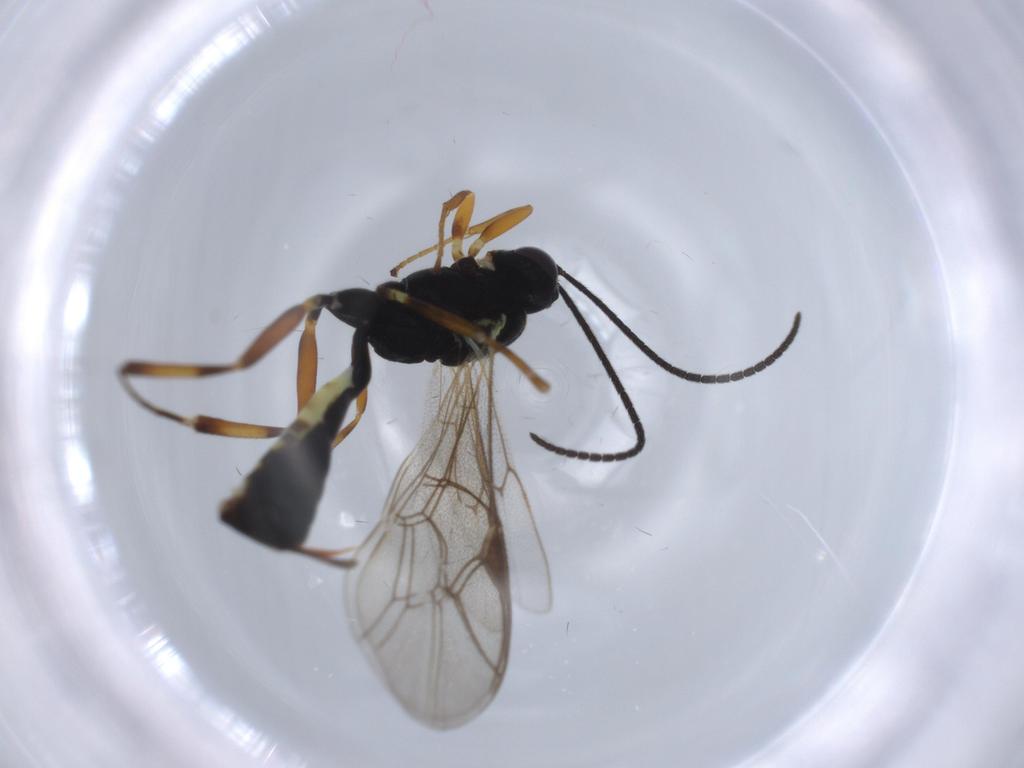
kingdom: Animalia
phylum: Arthropoda
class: Insecta
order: Hymenoptera
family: Ichneumonidae
